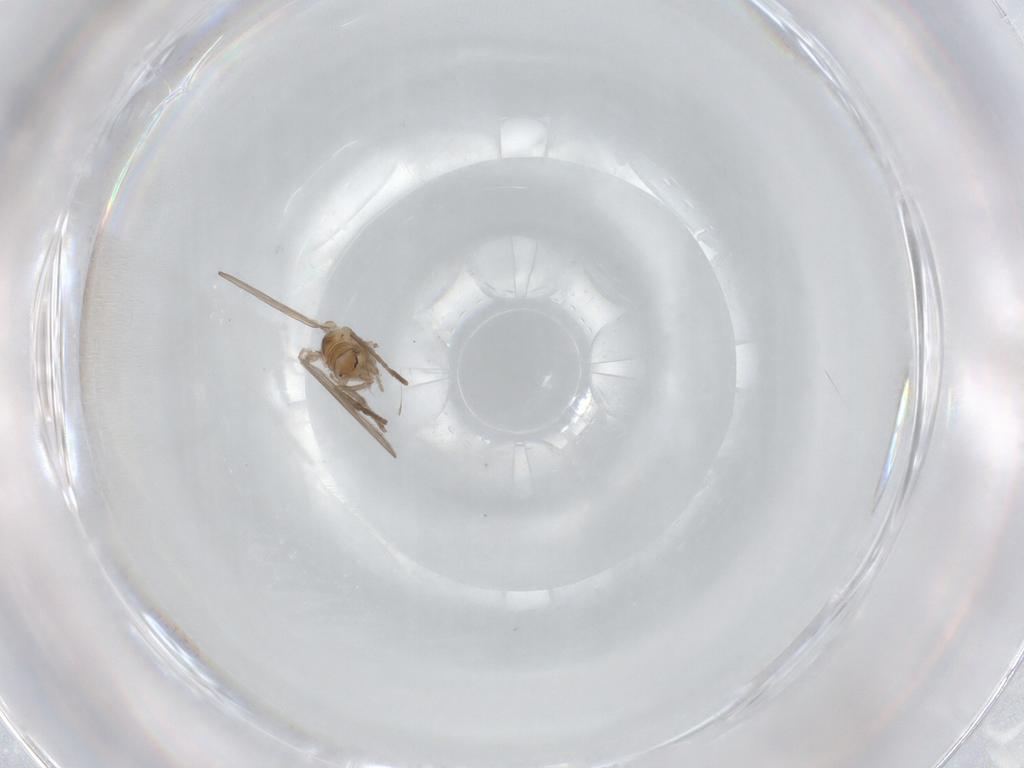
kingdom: Animalia
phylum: Arthropoda
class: Insecta
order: Diptera
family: Psychodidae
